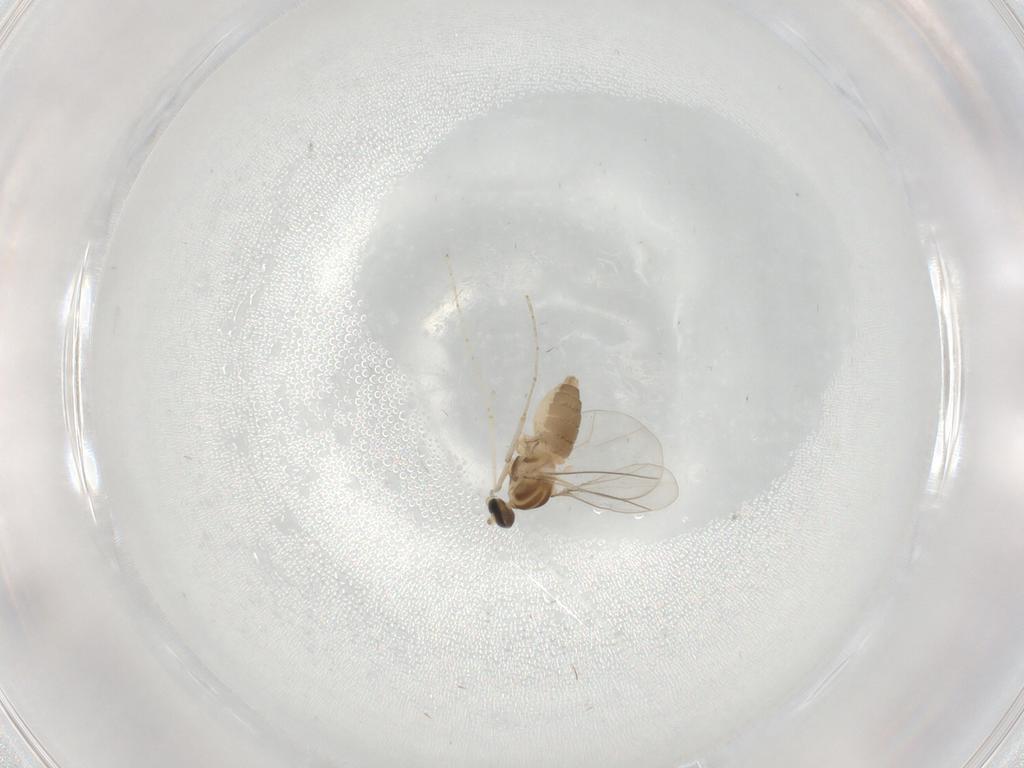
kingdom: Animalia
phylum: Arthropoda
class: Insecta
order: Diptera
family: Cecidomyiidae
